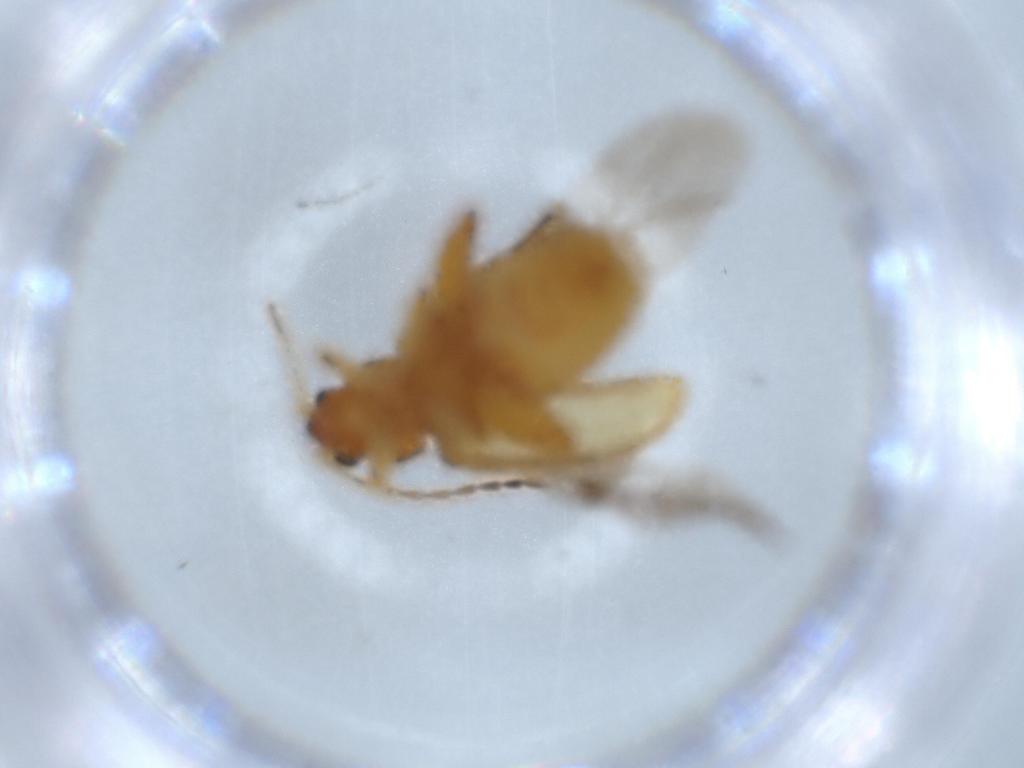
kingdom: Animalia
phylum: Arthropoda
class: Insecta
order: Coleoptera
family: Chrysomelidae
